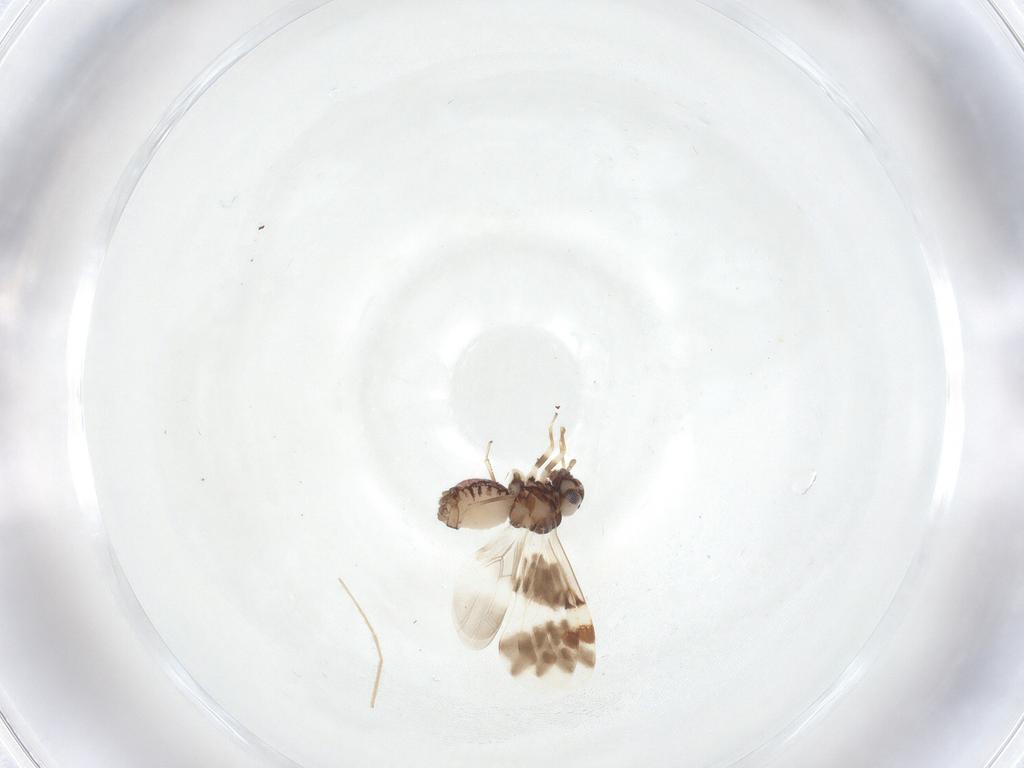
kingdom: Animalia
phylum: Arthropoda
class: Insecta
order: Psocodea
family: Ectopsocidae
